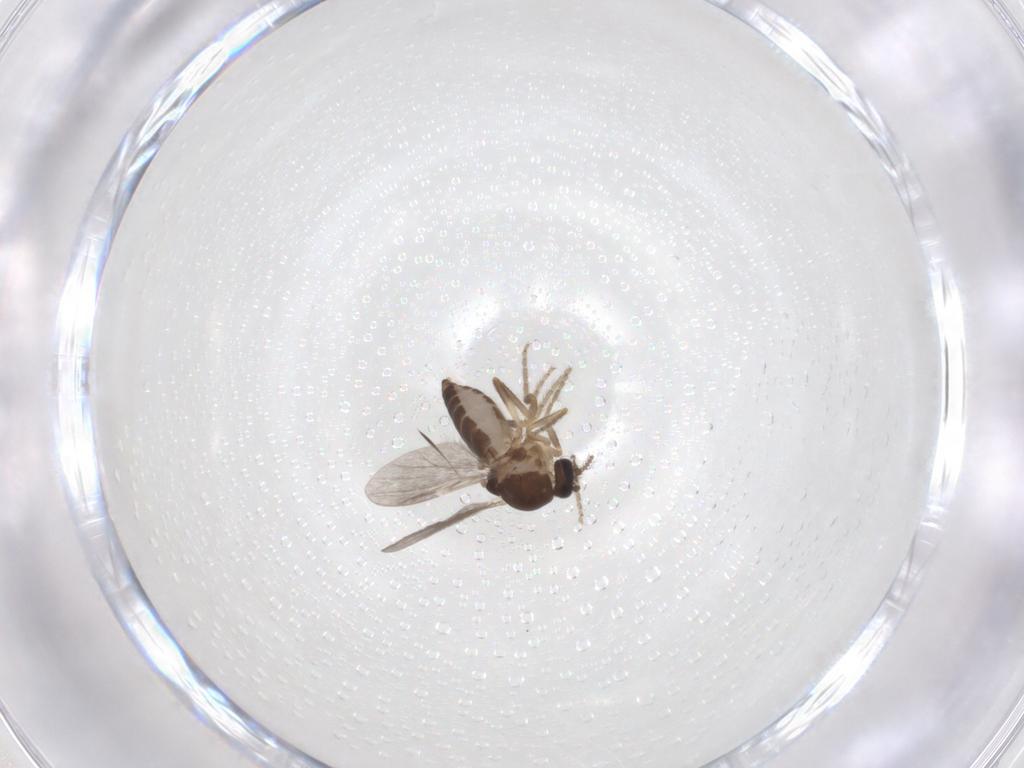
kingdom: Animalia
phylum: Arthropoda
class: Insecta
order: Diptera
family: Ceratopogonidae
